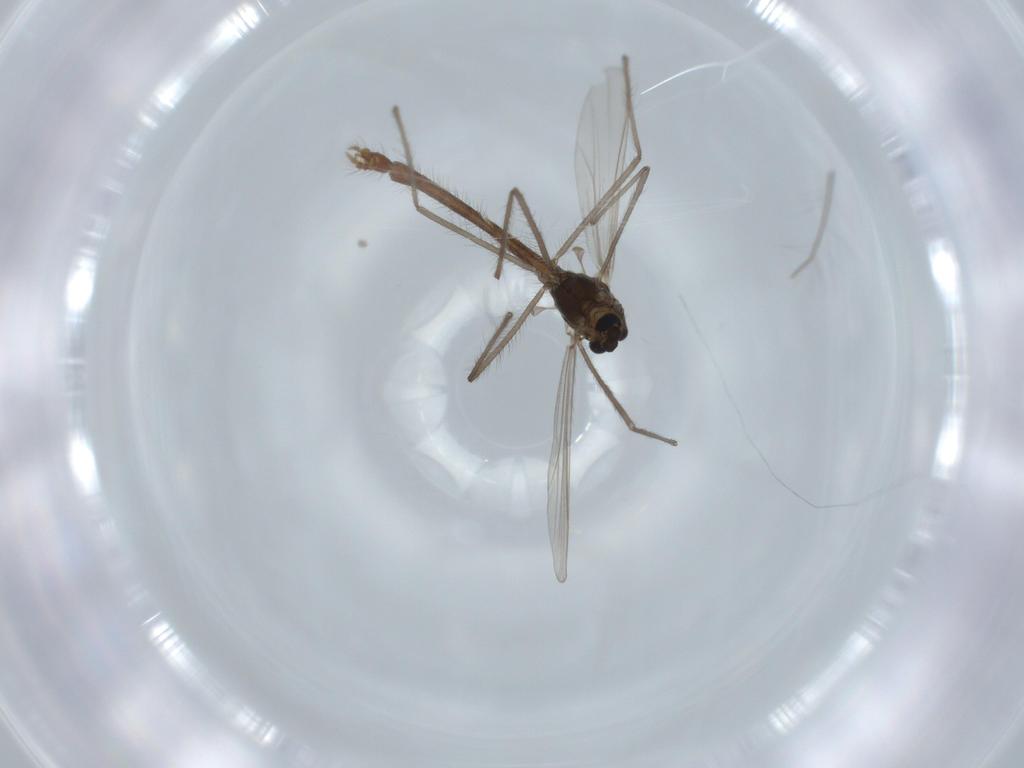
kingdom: Animalia
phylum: Arthropoda
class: Insecta
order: Diptera
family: Chironomidae
